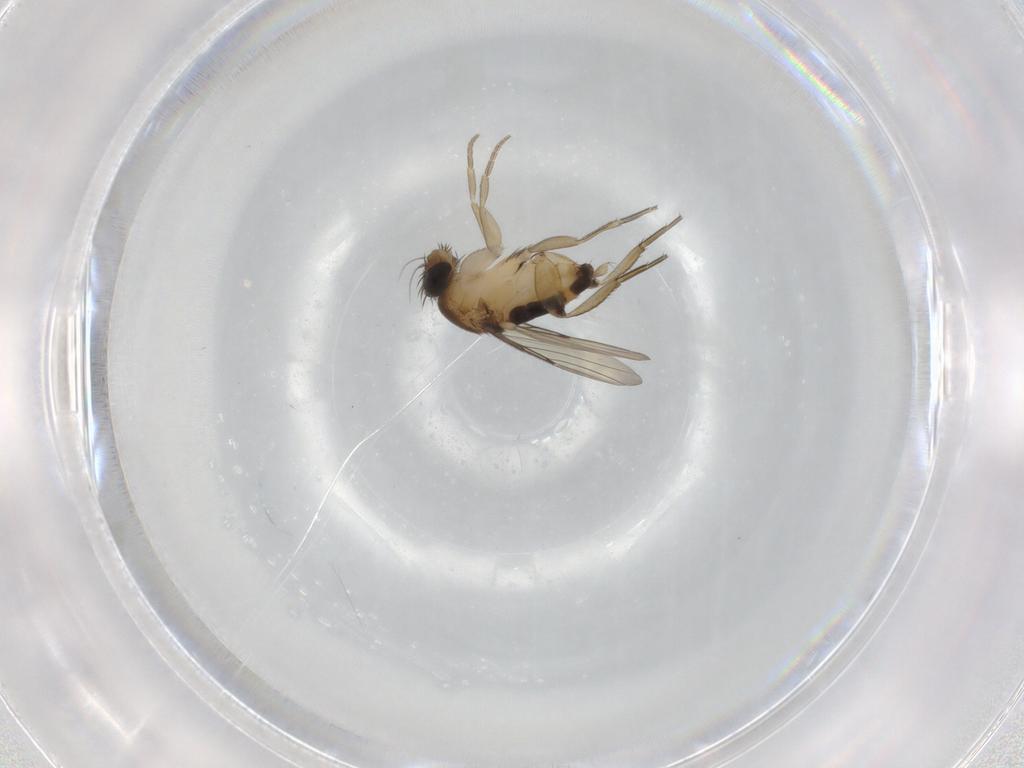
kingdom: Animalia
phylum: Arthropoda
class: Insecta
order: Diptera
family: Phoridae
